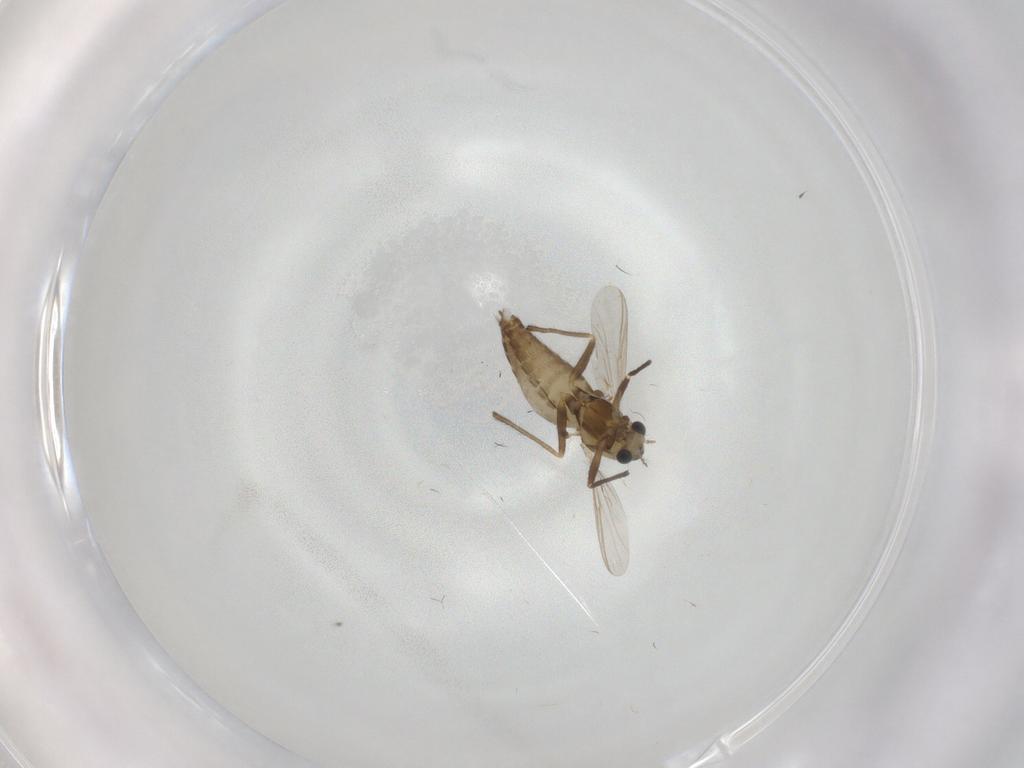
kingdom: Animalia
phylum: Arthropoda
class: Insecta
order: Diptera
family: Chironomidae
